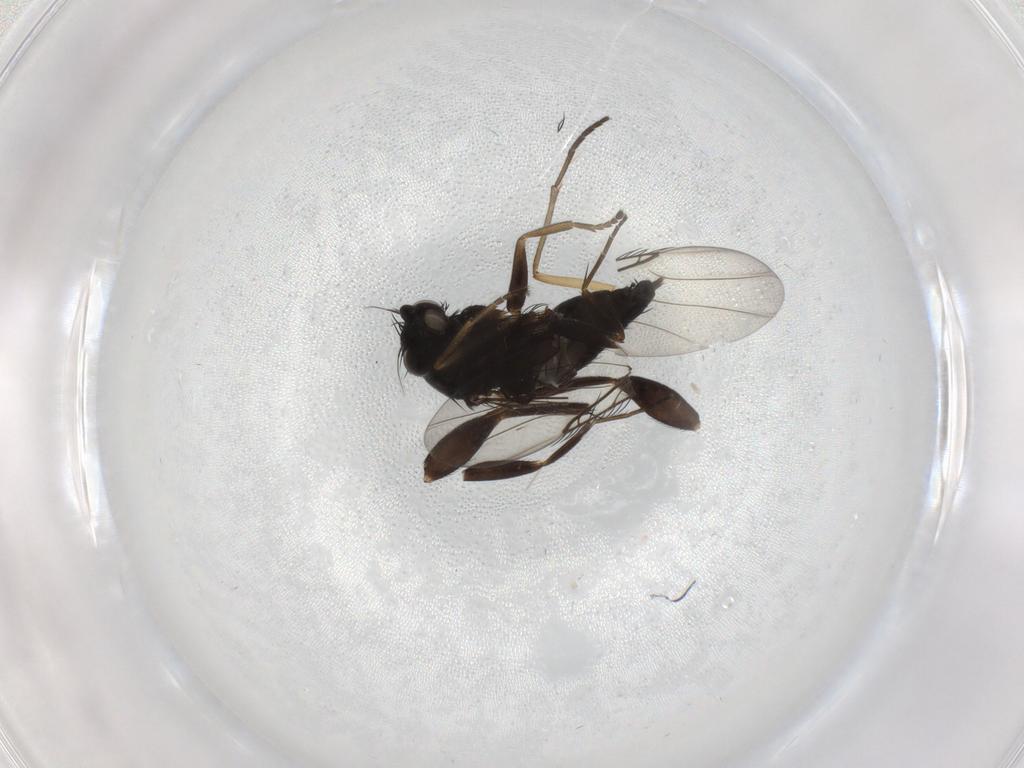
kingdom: Animalia
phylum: Arthropoda
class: Insecta
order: Diptera
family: Phoridae
